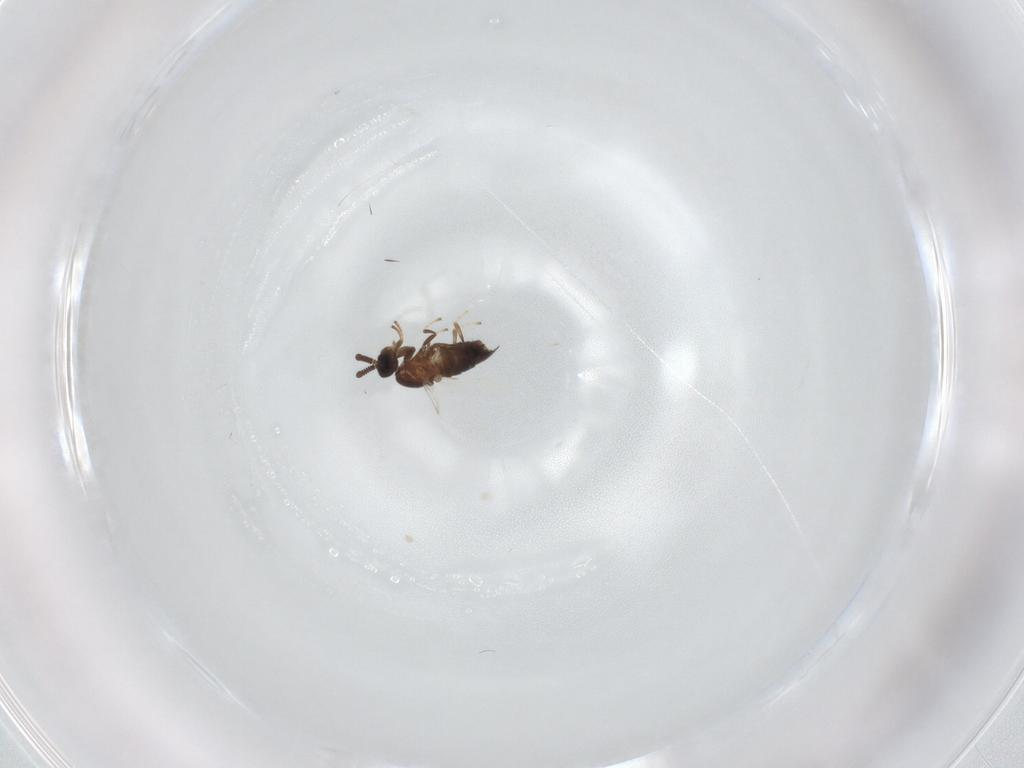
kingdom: Animalia
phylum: Arthropoda
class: Insecta
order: Diptera
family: Scatopsidae
